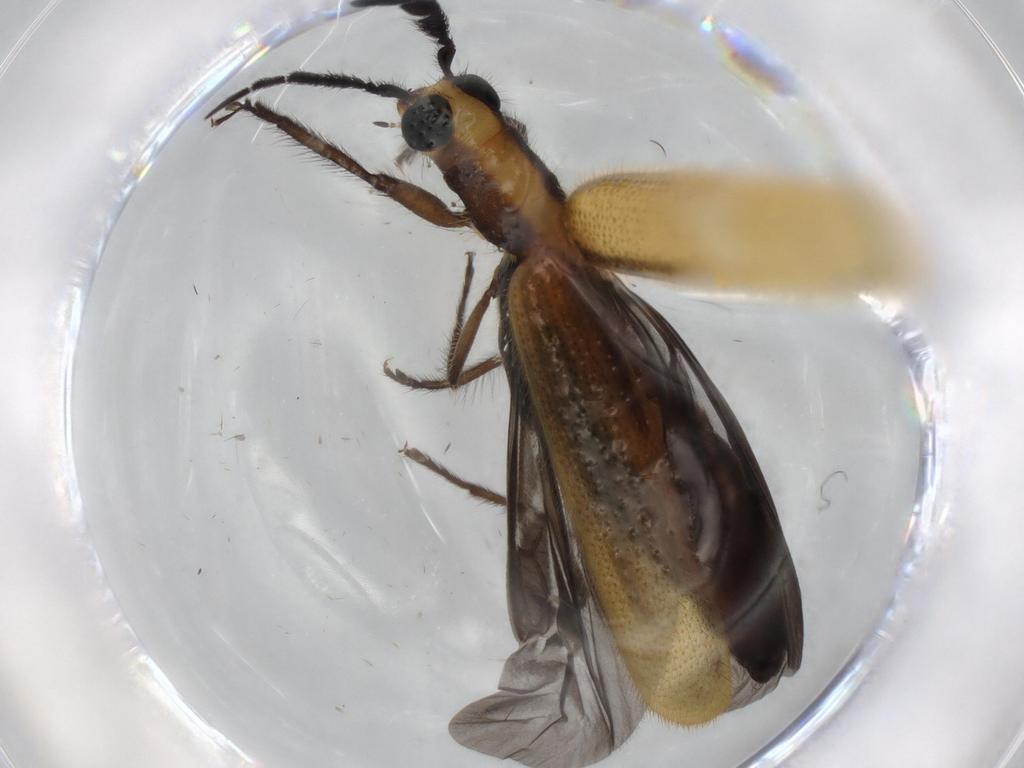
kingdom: Animalia
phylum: Arthropoda
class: Insecta
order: Coleoptera
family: Cleridae
